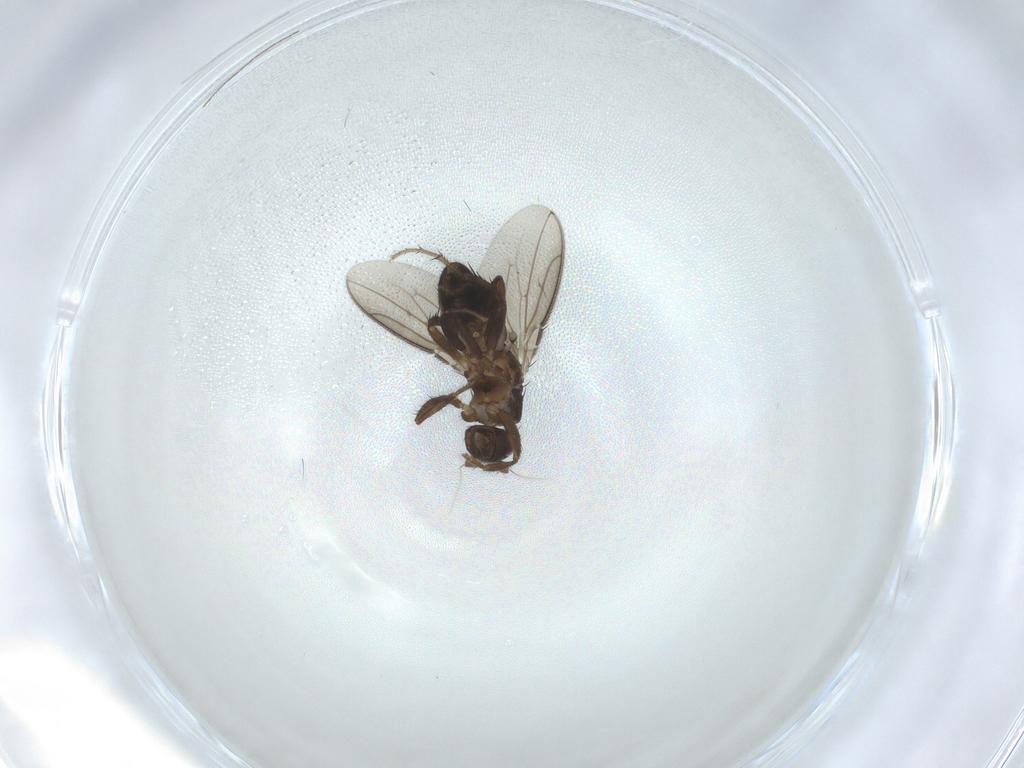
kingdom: Animalia
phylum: Arthropoda
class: Insecta
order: Diptera
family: Sphaeroceridae
